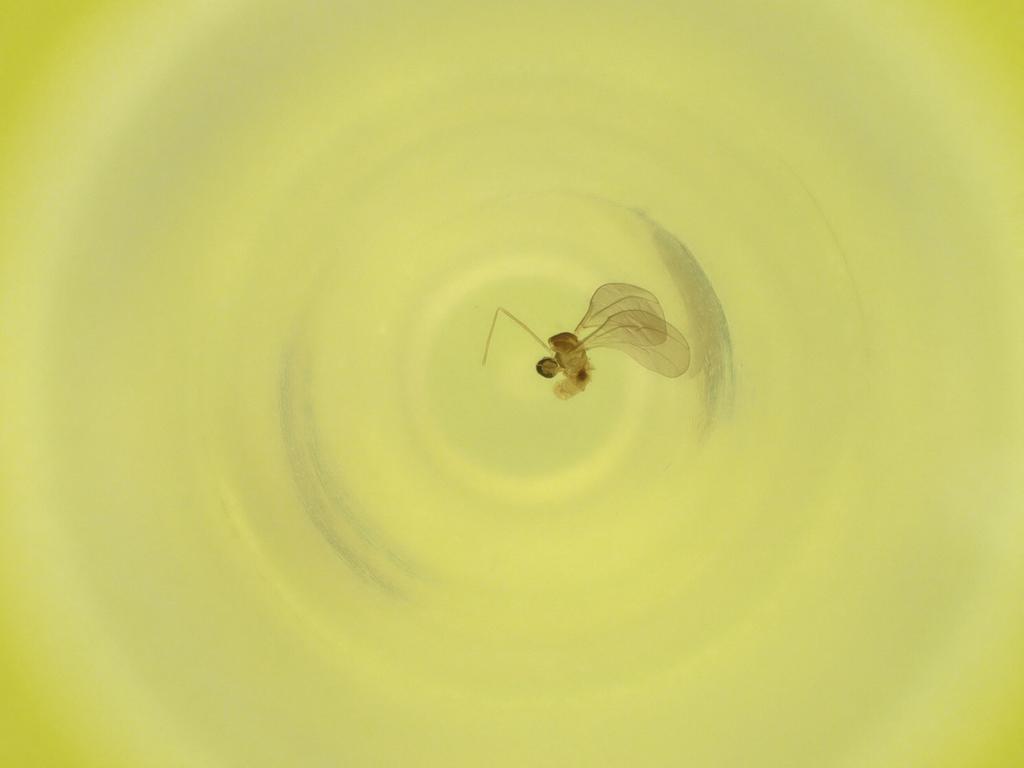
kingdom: Animalia
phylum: Arthropoda
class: Insecta
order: Diptera
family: Cecidomyiidae
